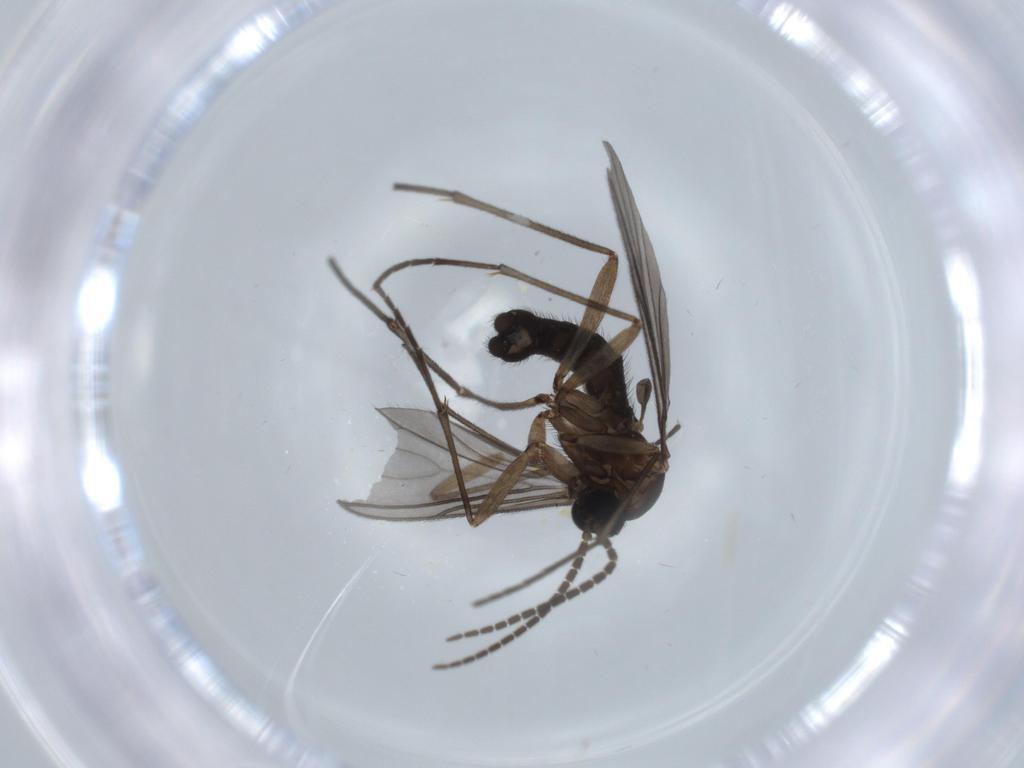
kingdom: Animalia
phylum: Arthropoda
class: Insecta
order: Diptera
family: Sciaridae
